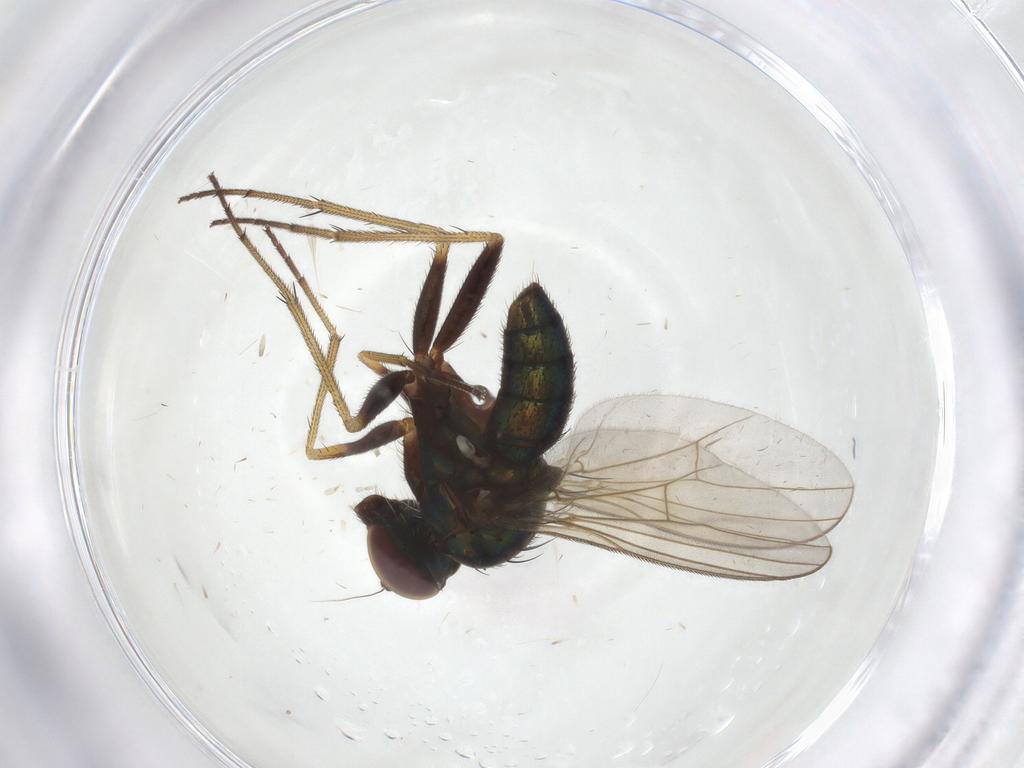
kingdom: Animalia
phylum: Arthropoda
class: Insecta
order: Diptera
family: Dolichopodidae
